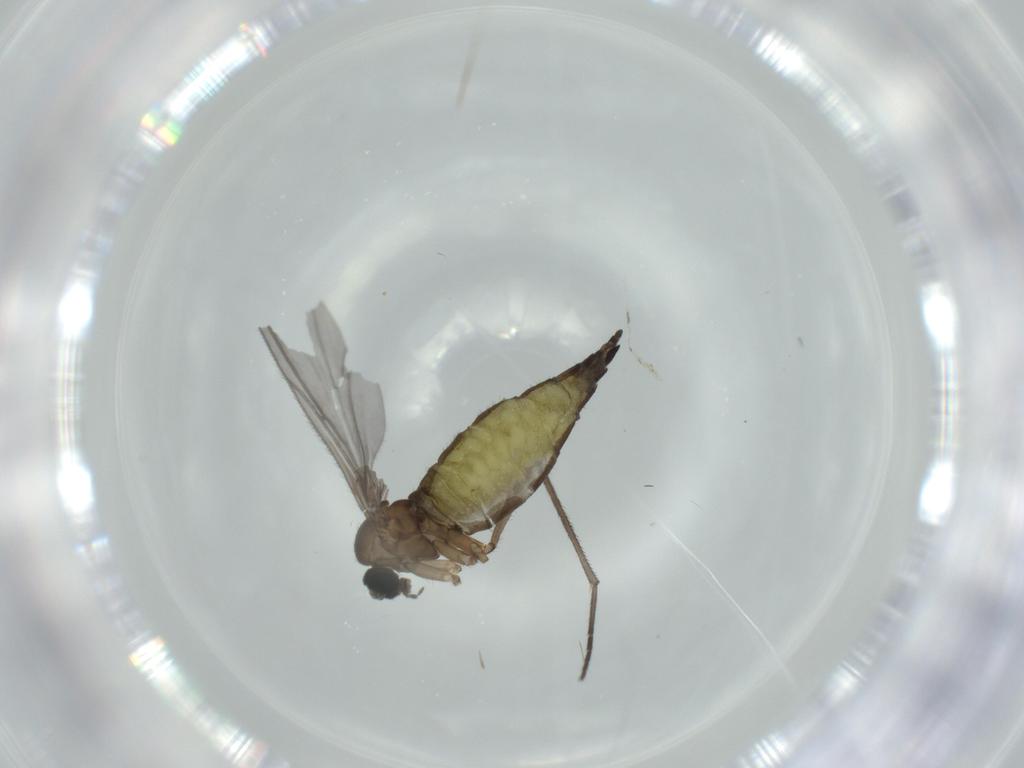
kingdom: Animalia
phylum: Arthropoda
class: Insecta
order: Diptera
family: Sciaridae
